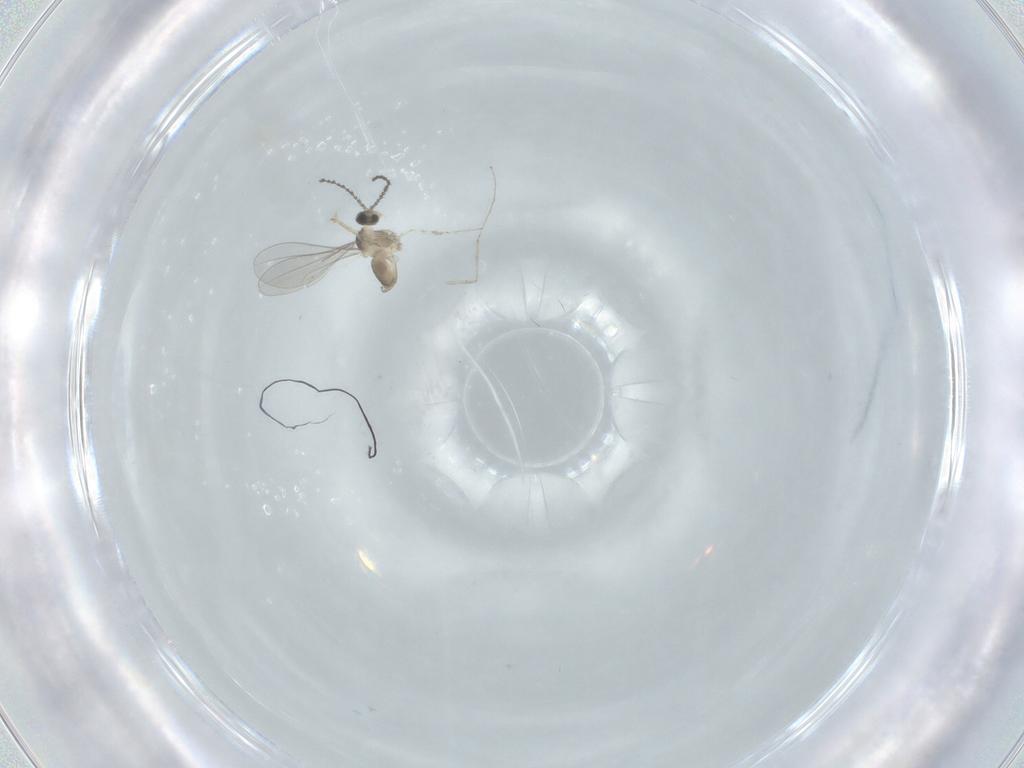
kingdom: Animalia
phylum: Arthropoda
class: Insecta
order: Diptera
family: Cecidomyiidae
